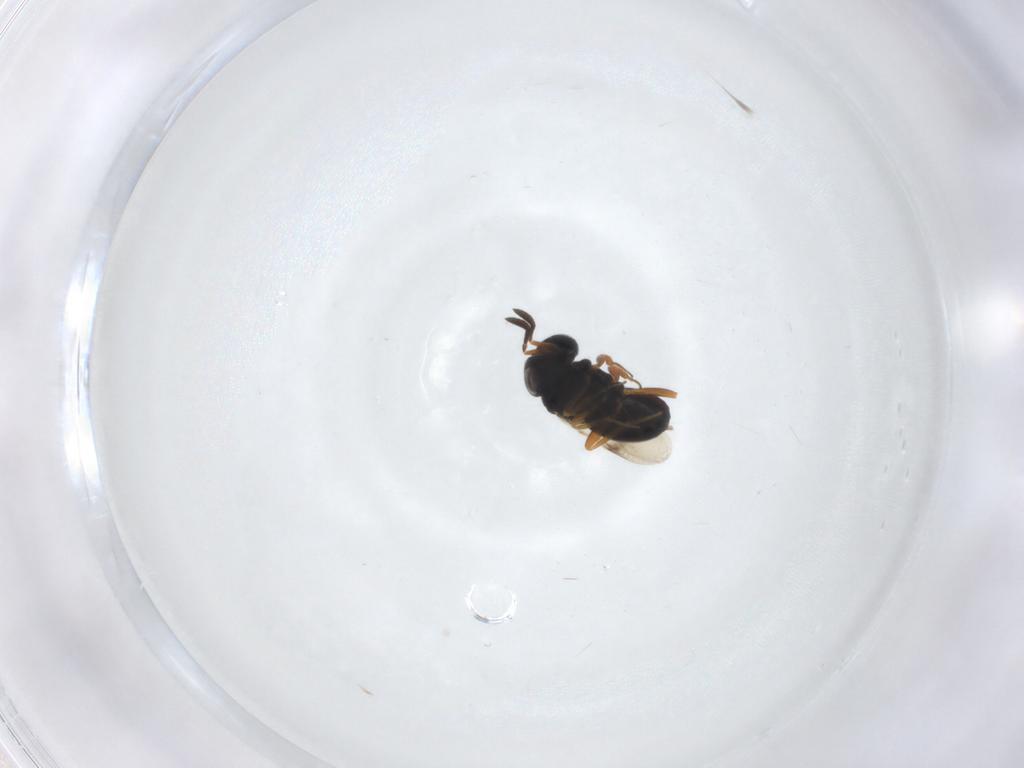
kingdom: Animalia
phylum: Arthropoda
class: Insecta
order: Hymenoptera
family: Scelionidae
